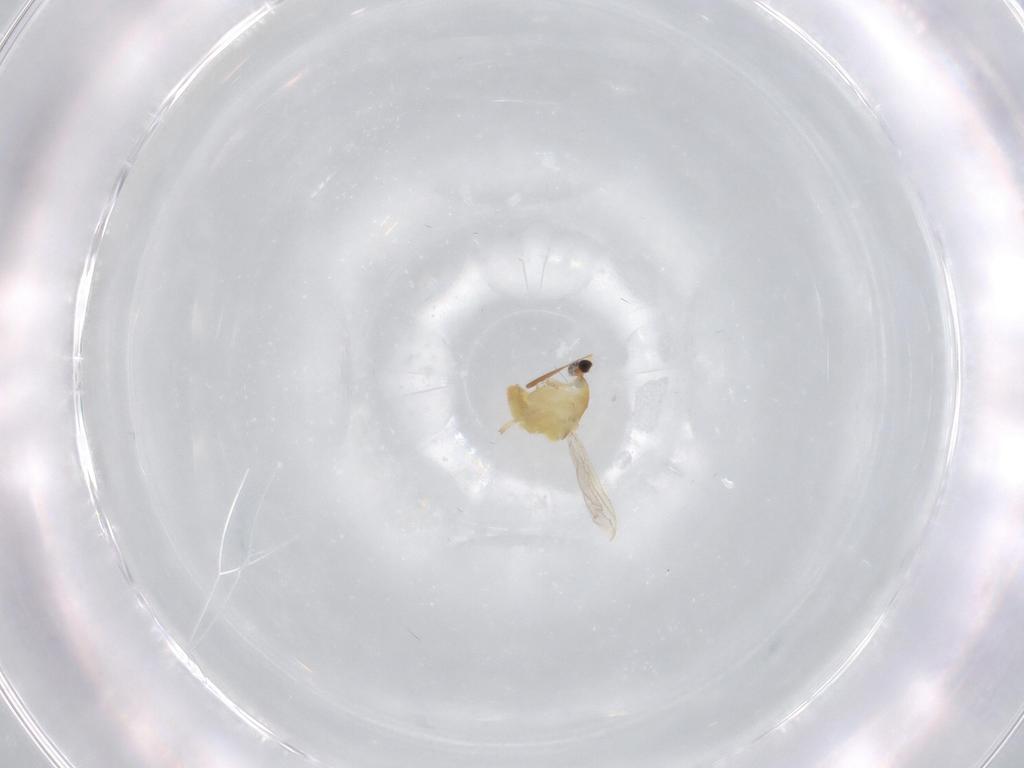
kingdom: Animalia
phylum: Arthropoda
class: Insecta
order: Diptera
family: Chironomidae
